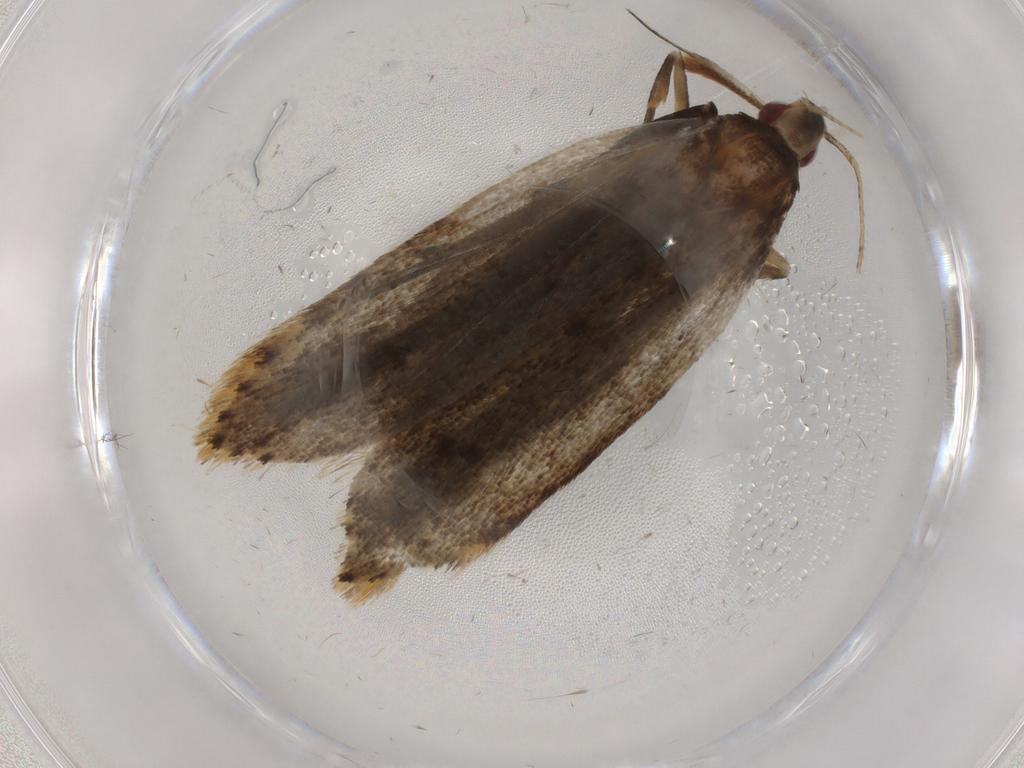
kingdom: Animalia
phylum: Arthropoda
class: Insecta
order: Lepidoptera
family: Gelechiidae
